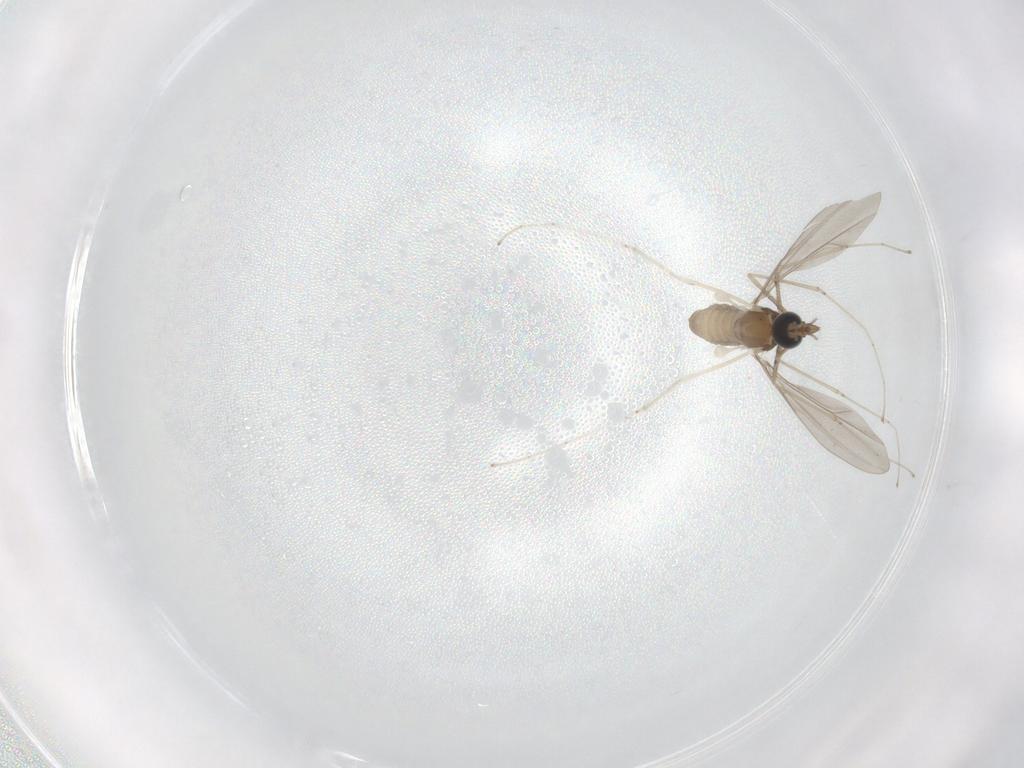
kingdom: Animalia
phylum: Arthropoda
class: Insecta
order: Diptera
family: Cecidomyiidae
